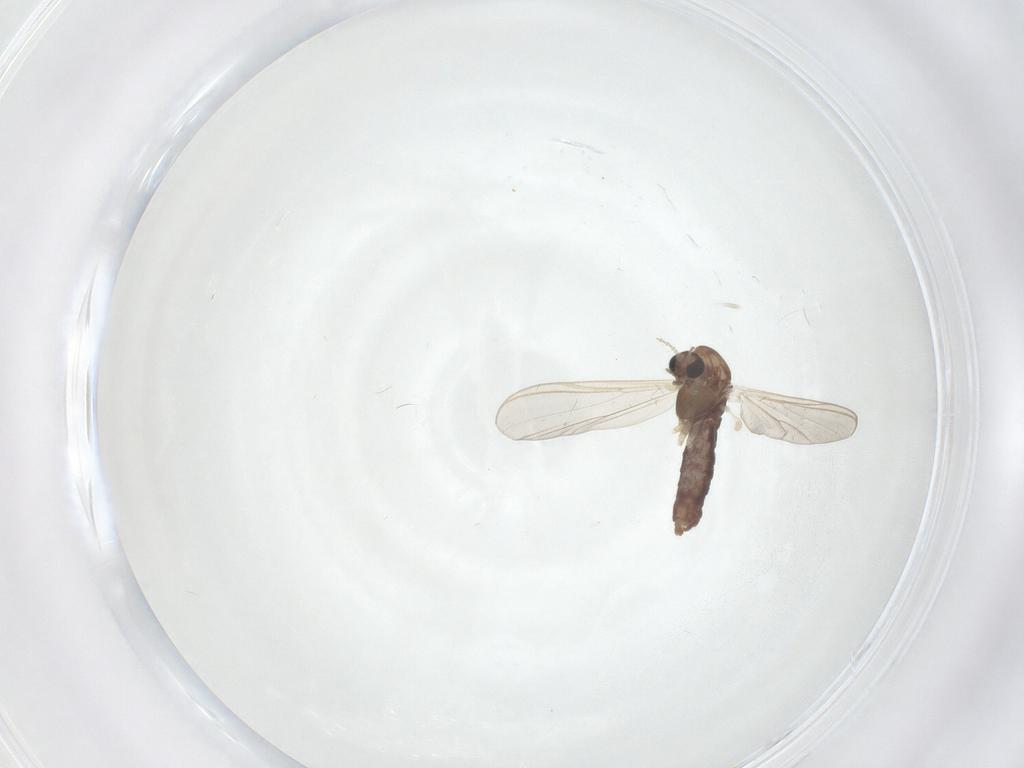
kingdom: Animalia
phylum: Arthropoda
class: Insecta
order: Diptera
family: Chironomidae
